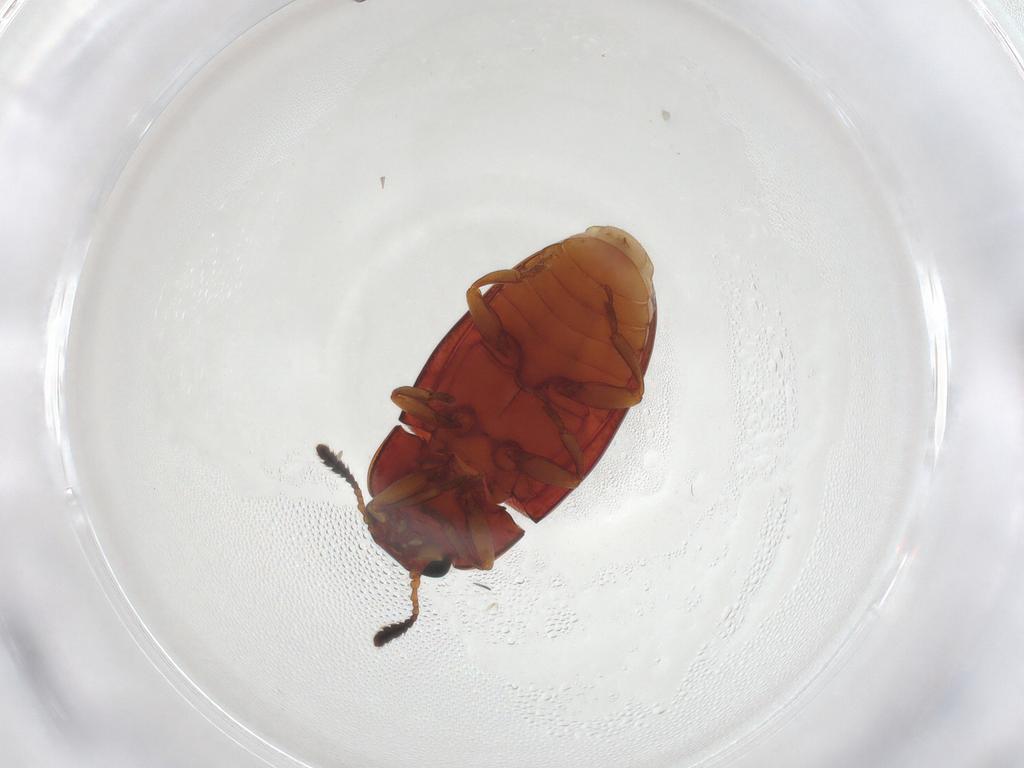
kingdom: Animalia
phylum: Arthropoda
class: Insecta
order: Coleoptera
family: Erotylidae
